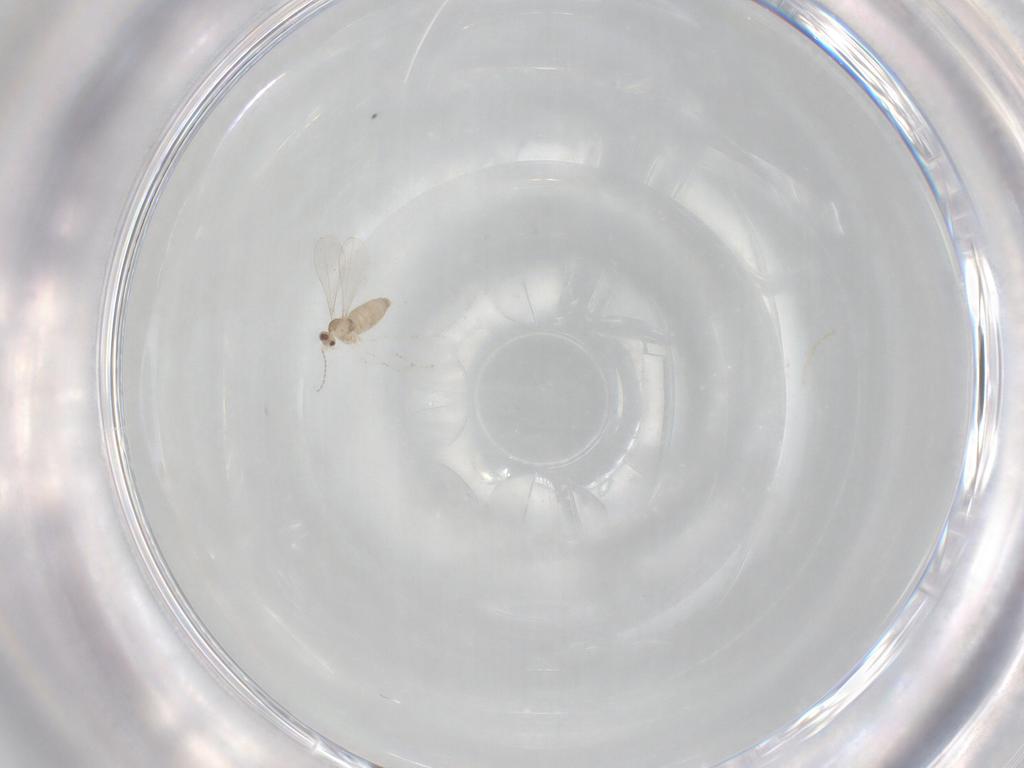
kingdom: Animalia
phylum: Arthropoda
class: Insecta
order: Diptera
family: Cecidomyiidae
